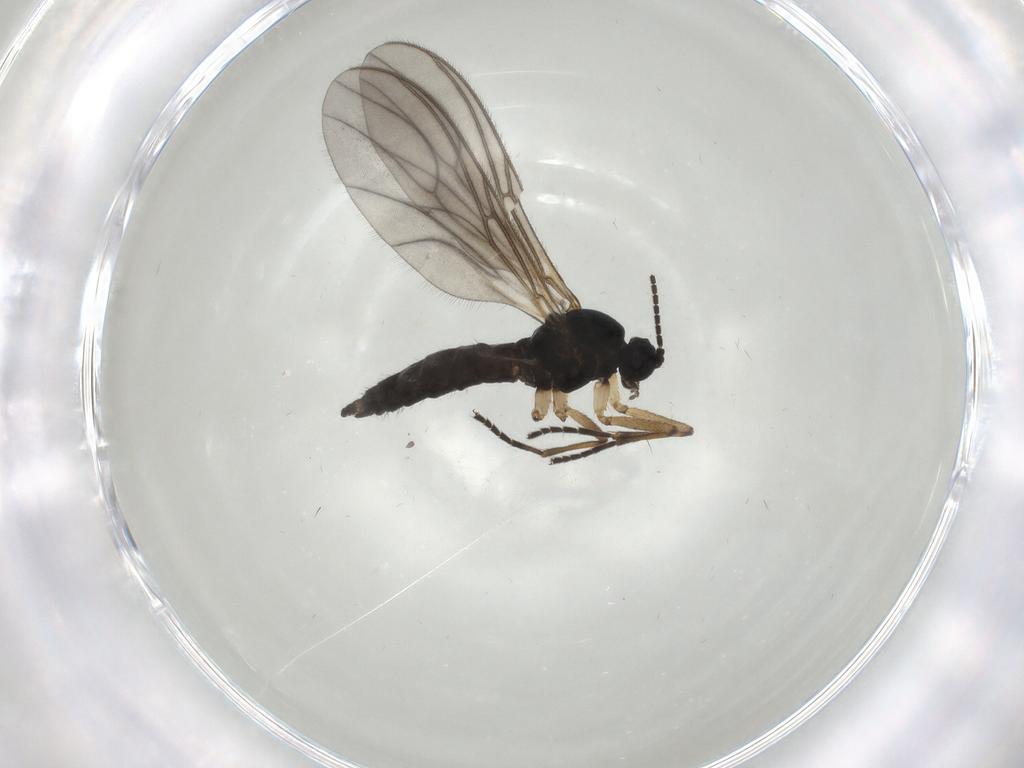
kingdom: Animalia
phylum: Arthropoda
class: Insecta
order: Diptera
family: Sciaridae
